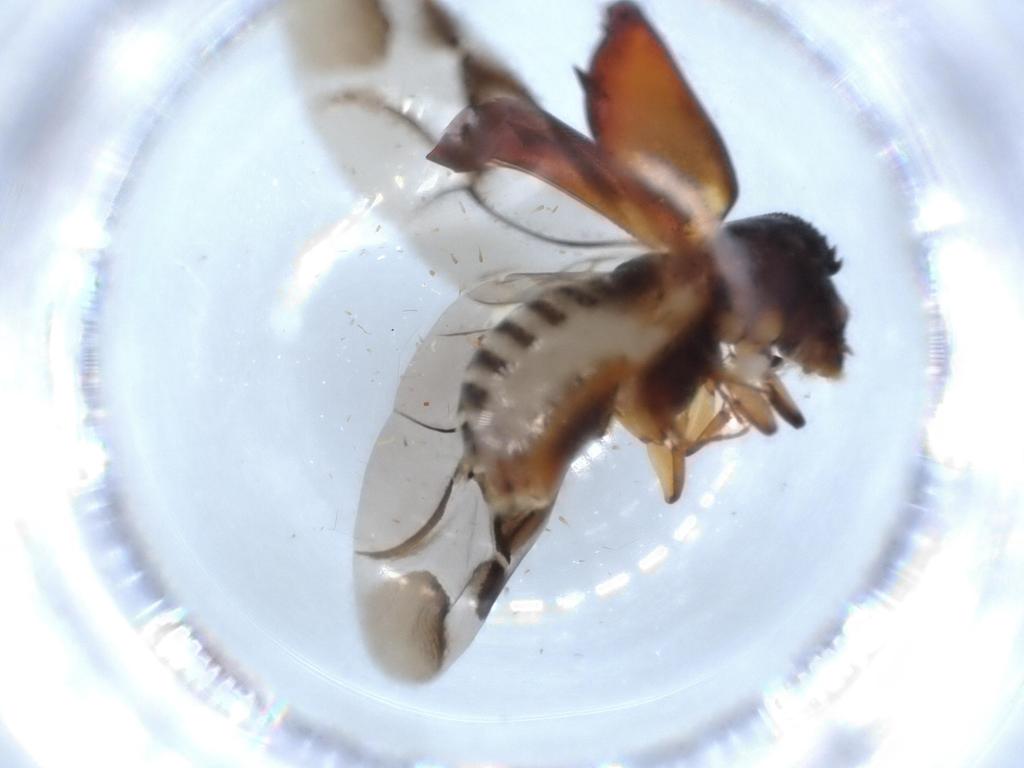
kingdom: Animalia
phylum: Arthropoda
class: Insecta
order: Coleoptera
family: Bostrichidae
